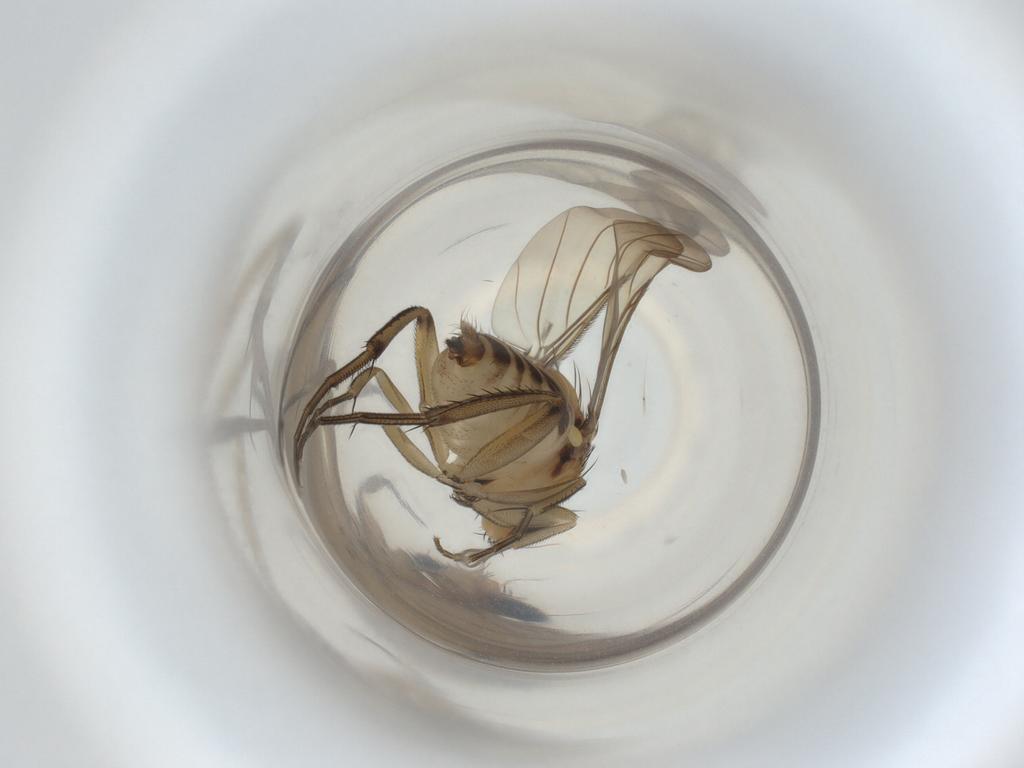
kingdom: Animalia
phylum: Arthropoda
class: Insecta
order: Diptera
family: Phoridae
